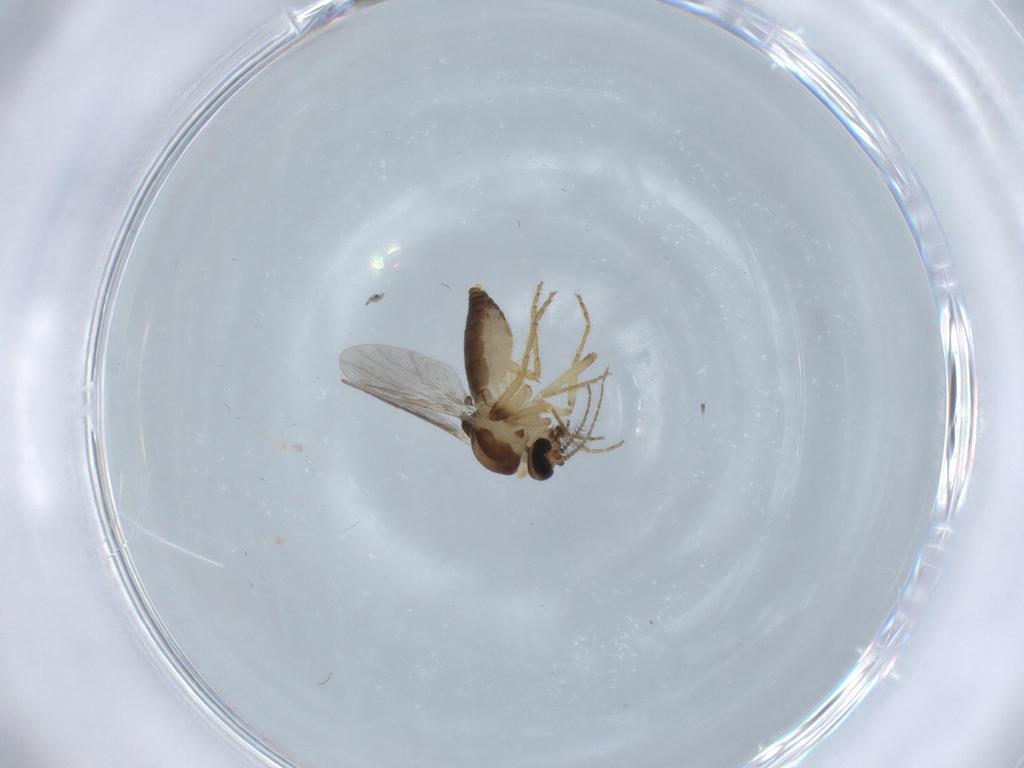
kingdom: Animalia
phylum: Arthropoda
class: Insecta
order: Diptera
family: Ceratopogonidae
